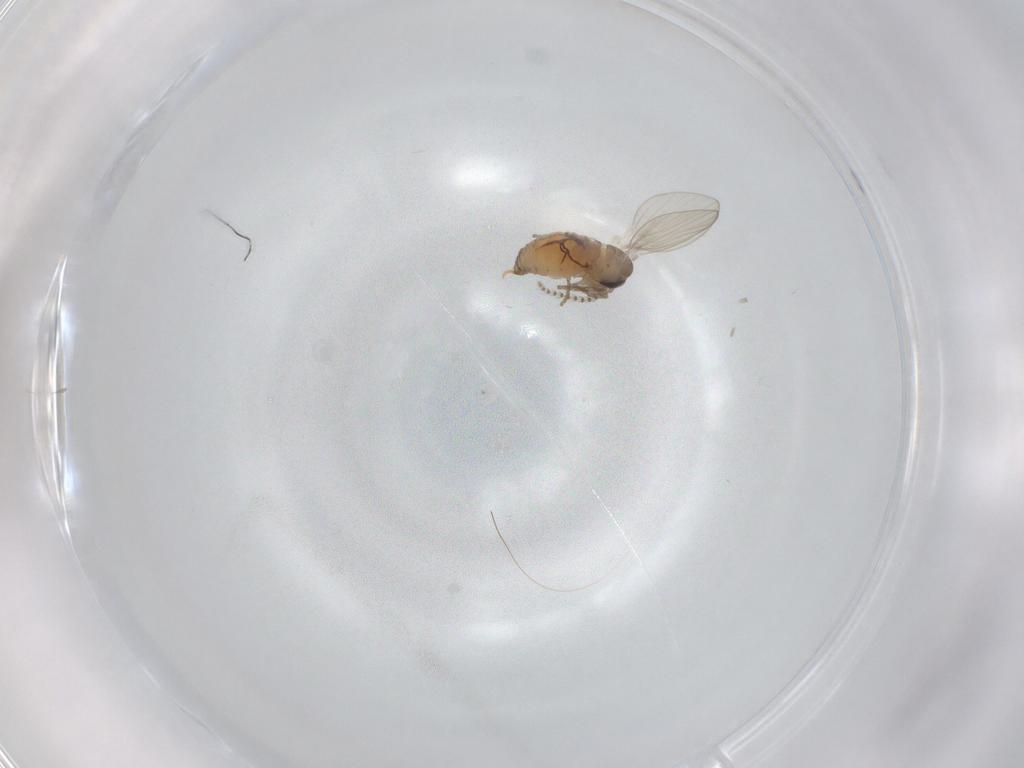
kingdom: Animalia
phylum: Arthropoda
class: Insecta
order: Diptera
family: Psychodidae
